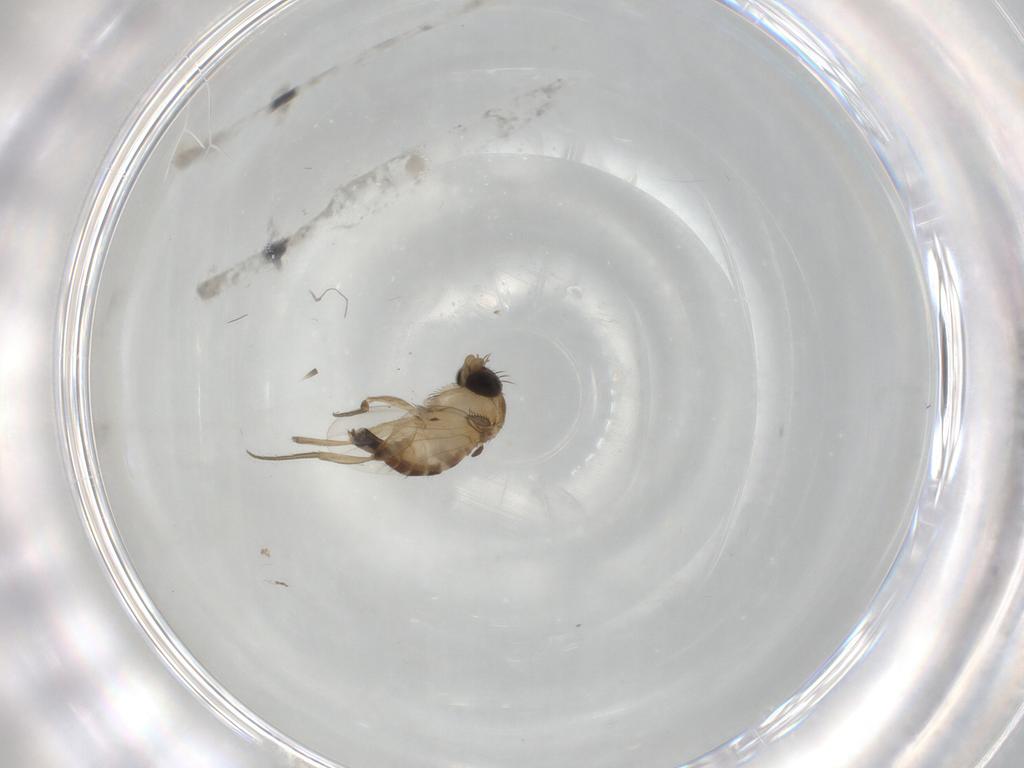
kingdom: Animalia
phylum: Arthropoda
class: Insecta
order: Diptera
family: Phoridae
